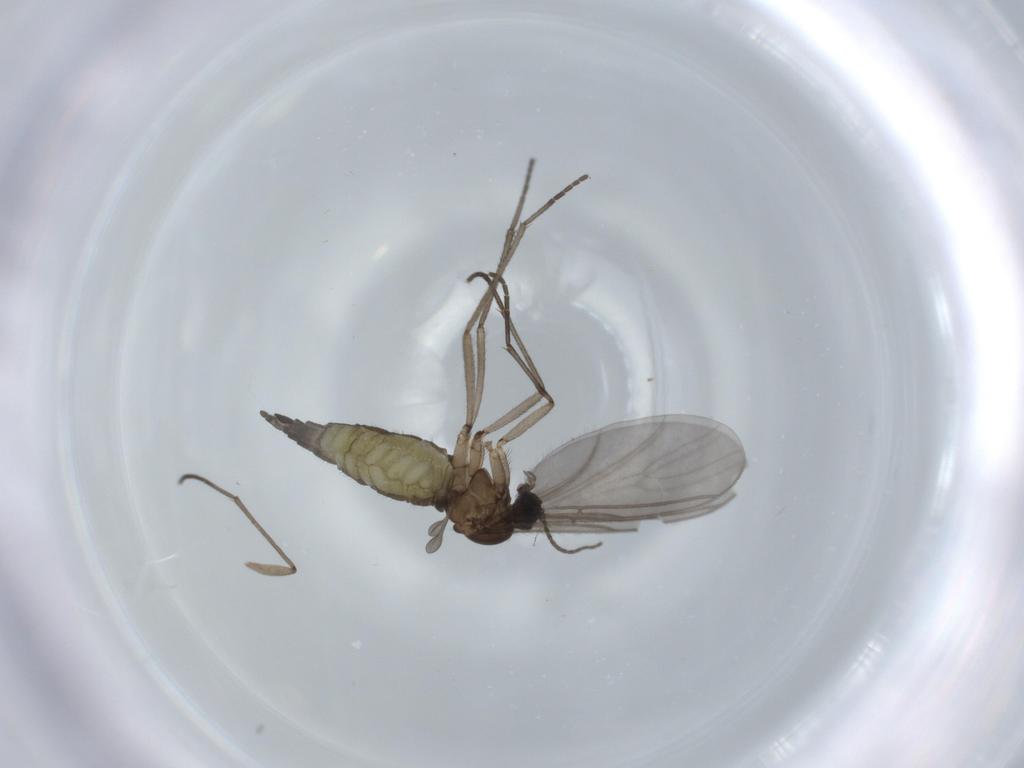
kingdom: Animalia
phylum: Arthropoda
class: Insecta
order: Diptera
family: Sciaridae
